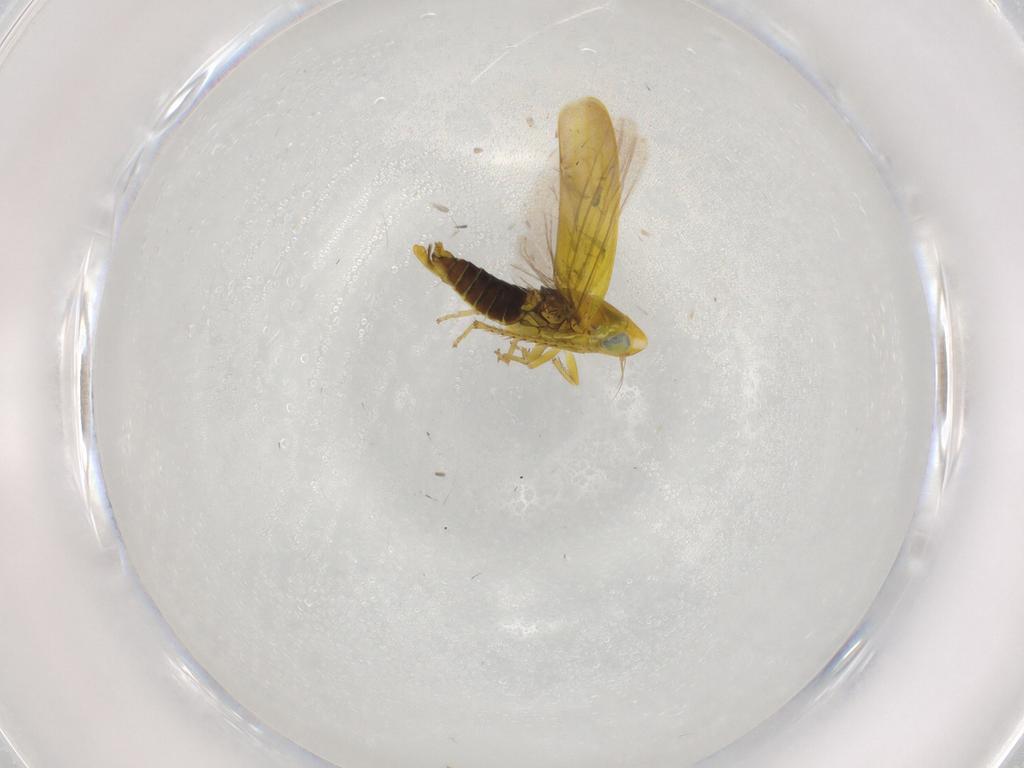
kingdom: Animalia
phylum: Arthropoda
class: Insecta
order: Hemiptera
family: Cicadellidae
